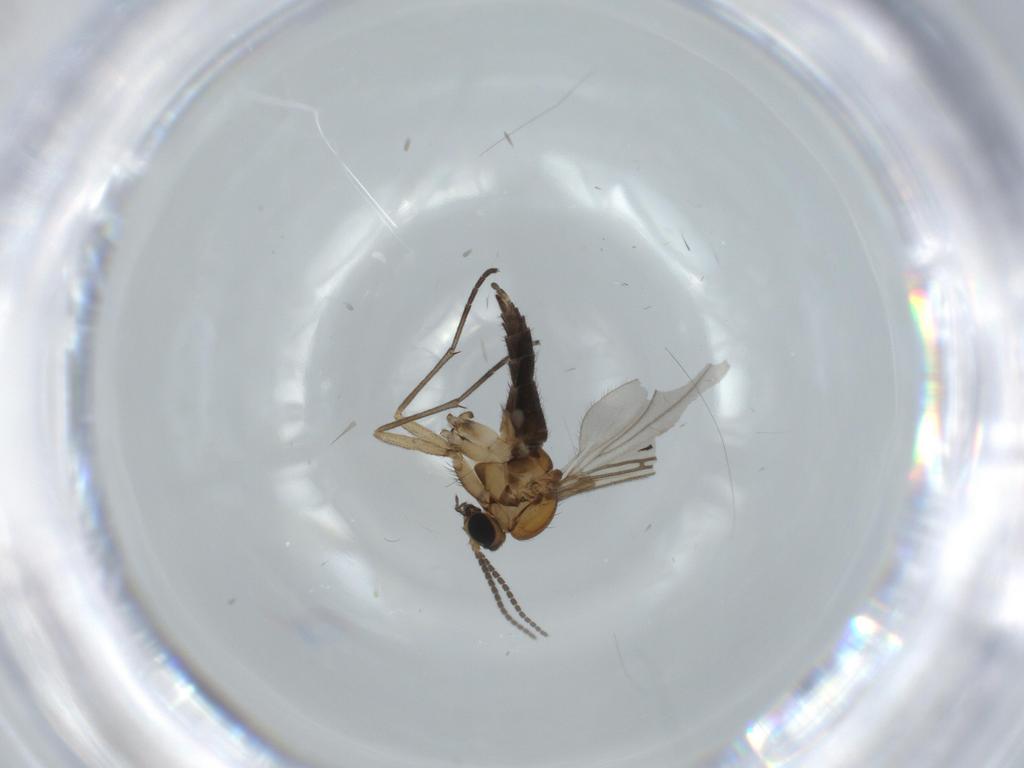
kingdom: Animalia
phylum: Arthropoda
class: Insecta
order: Diptera
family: Sciaridae
